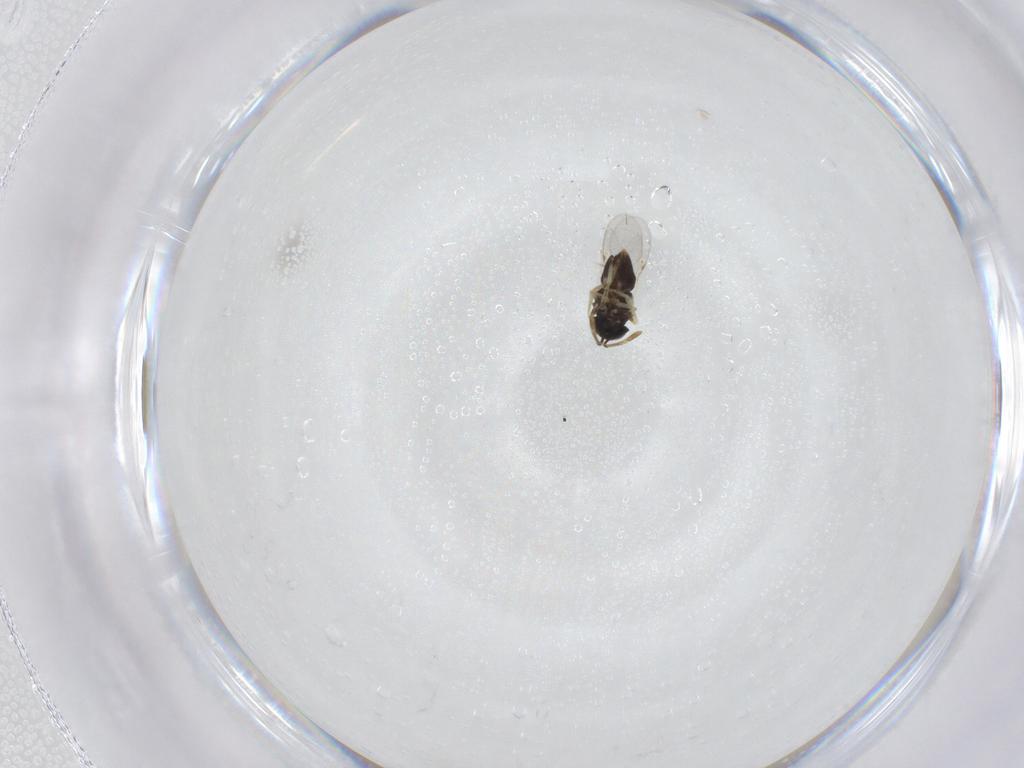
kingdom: Animalia
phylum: Arthropoda
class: Insecta
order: Hymenoptera
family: Encyrtidae
